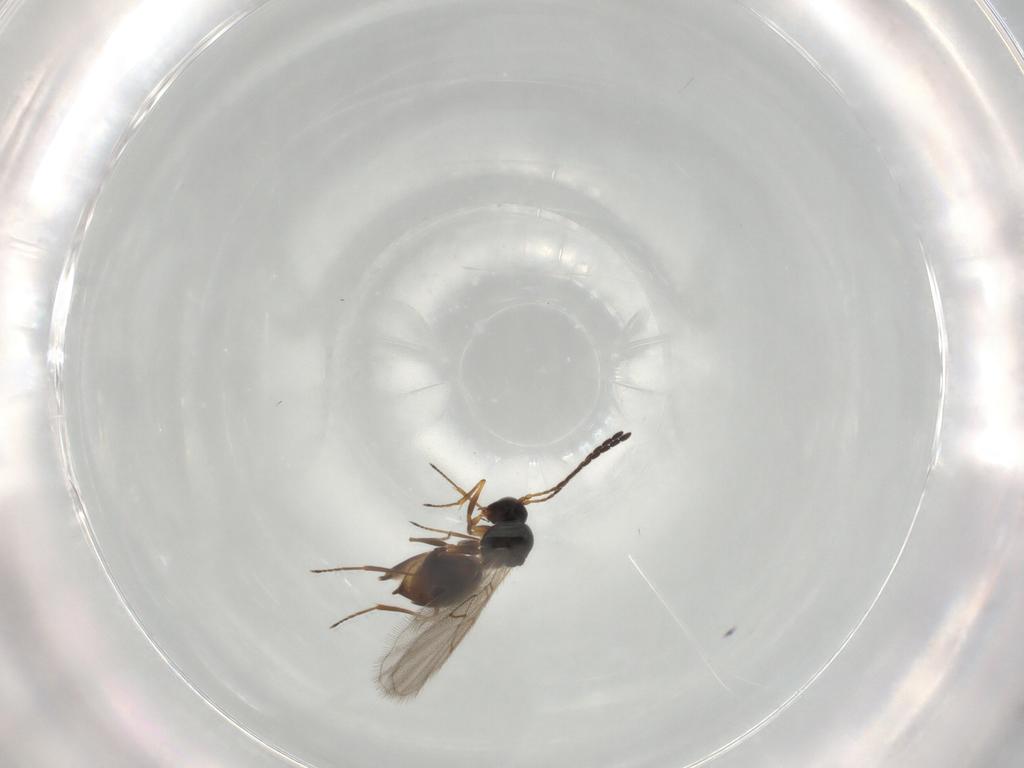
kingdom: Animalia
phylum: Arthropoda
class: Insecta
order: Hymenoptera
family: Figitidae
